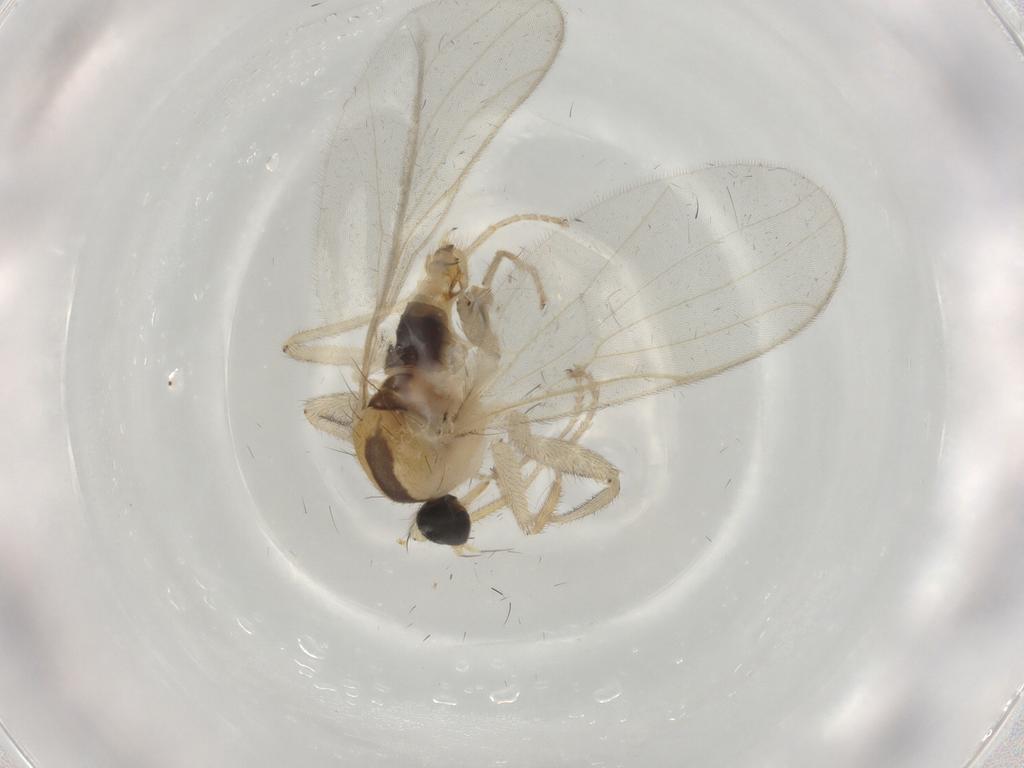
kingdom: Animalia
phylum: Arthropoda
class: Insecta
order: Diptera
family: Hybotidae
